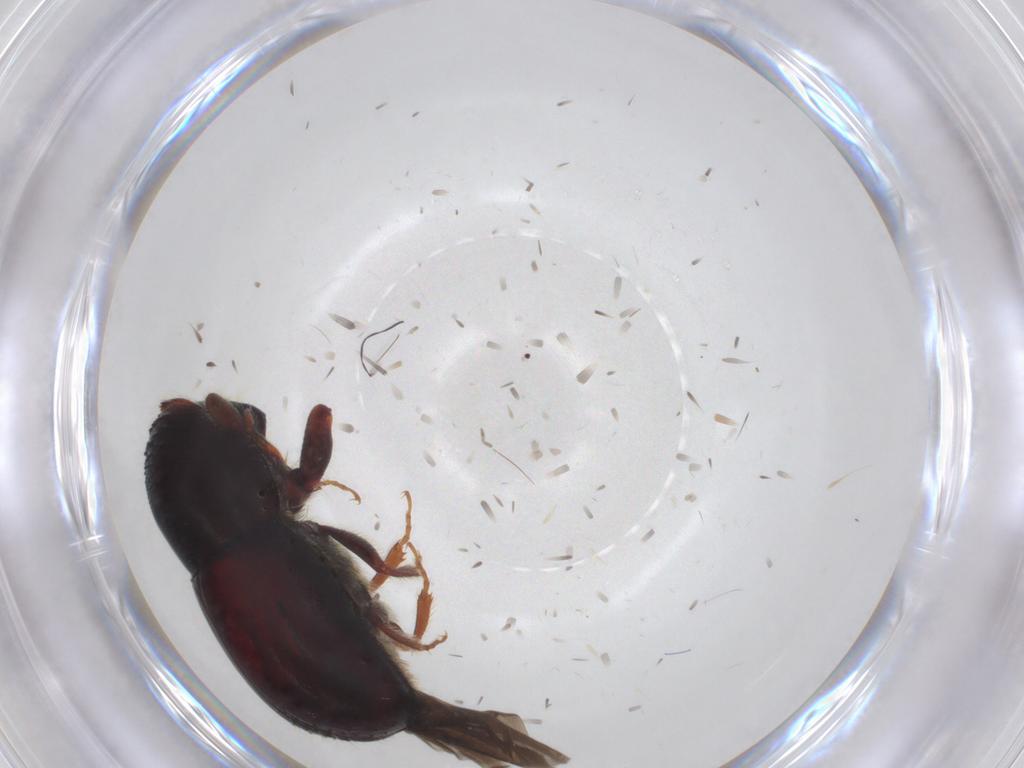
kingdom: Animalia
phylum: Arthropoda
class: Insecta
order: Coleoptera
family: Curculionidae
